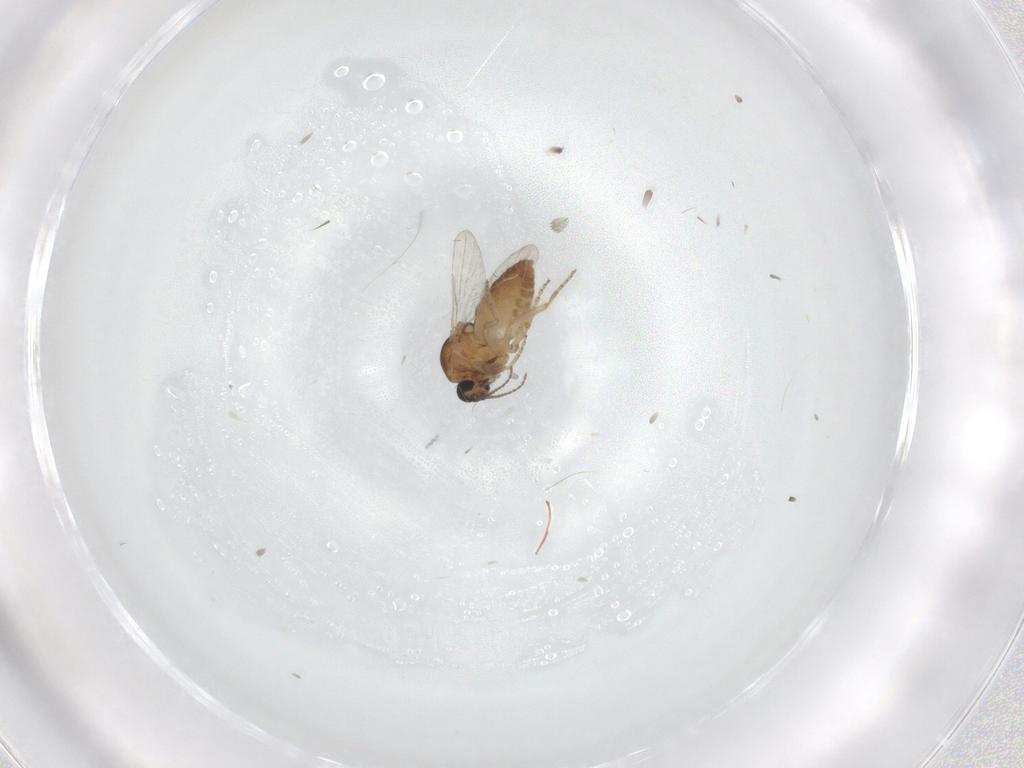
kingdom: Animalia
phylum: Arthropoda
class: Insecta
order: Diptera
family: Ceratopogonidae
